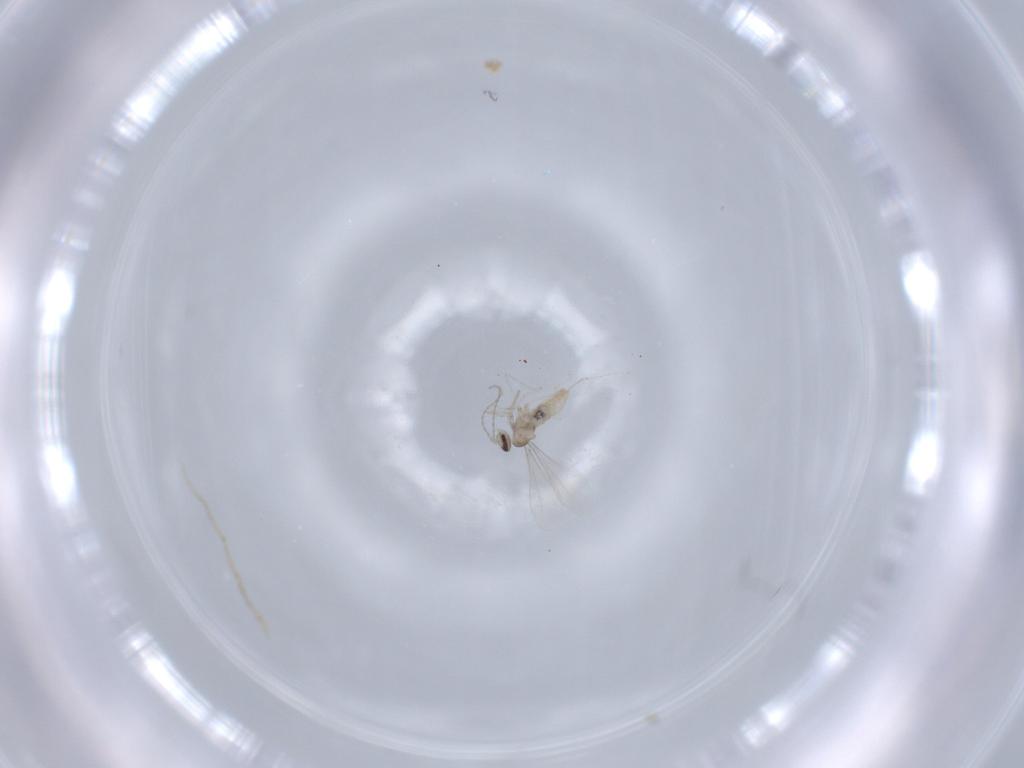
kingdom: Animalia
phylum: Arthropoda
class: Insecta
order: Diptera
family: Cecidomyiidae
